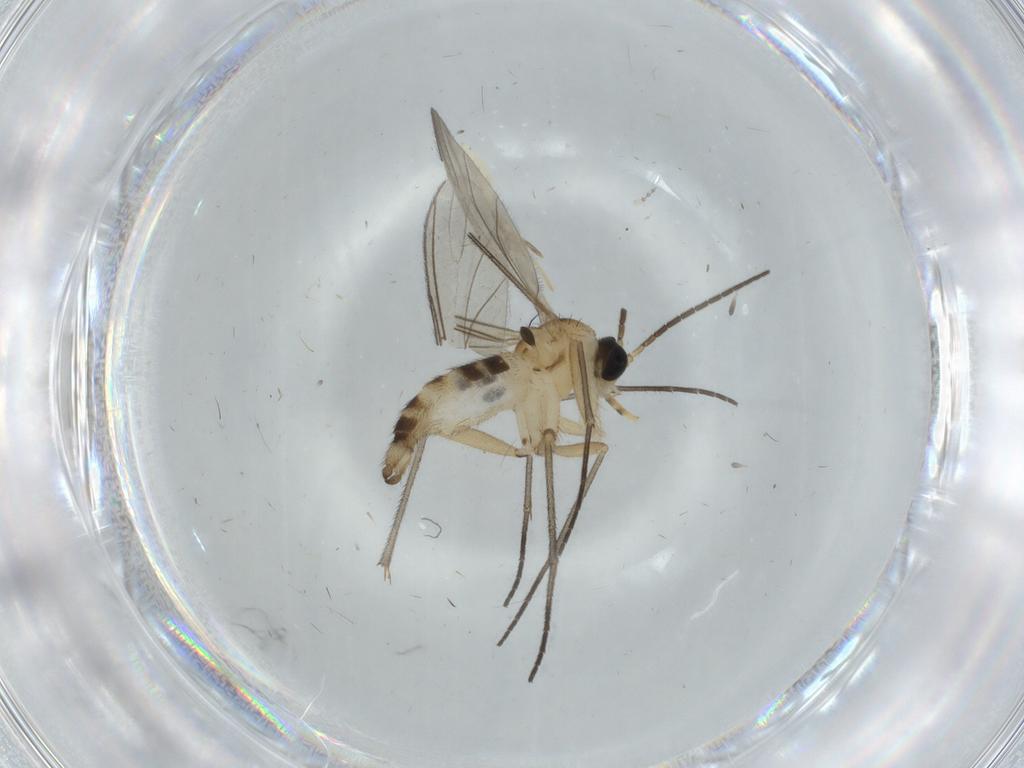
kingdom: Animalia
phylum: Arthropoda
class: Insecta
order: Diptera
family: Sciaridae
